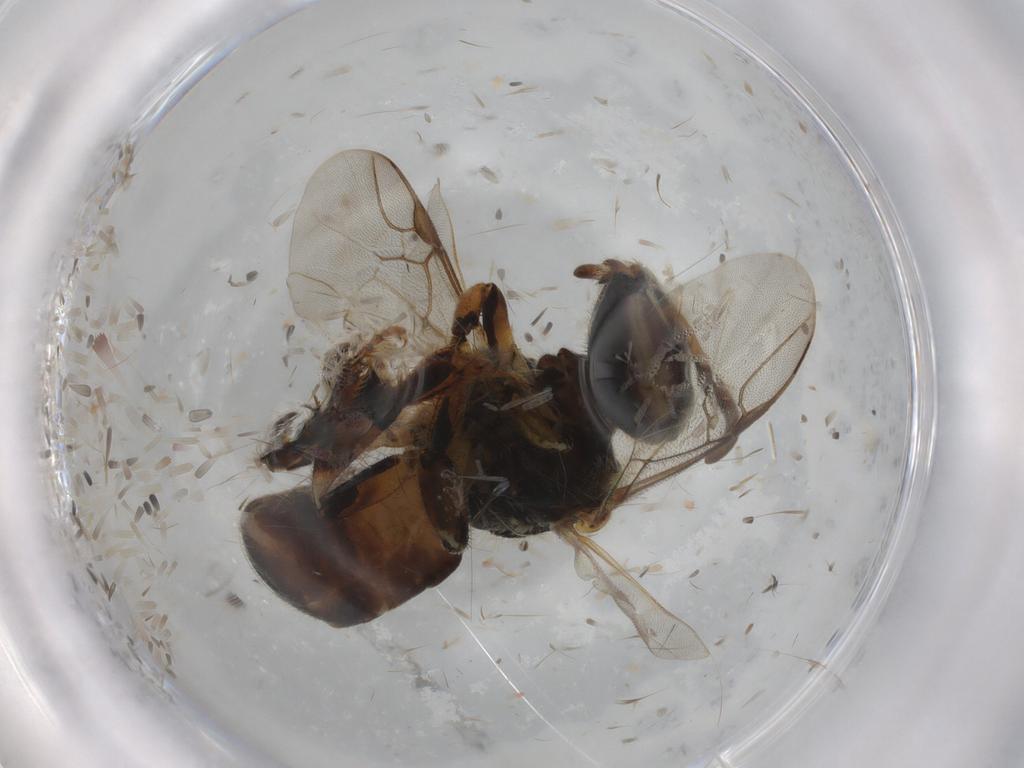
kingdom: Animalia
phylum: Arthropoda
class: Insecta
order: Hymenoptera
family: Apidae
